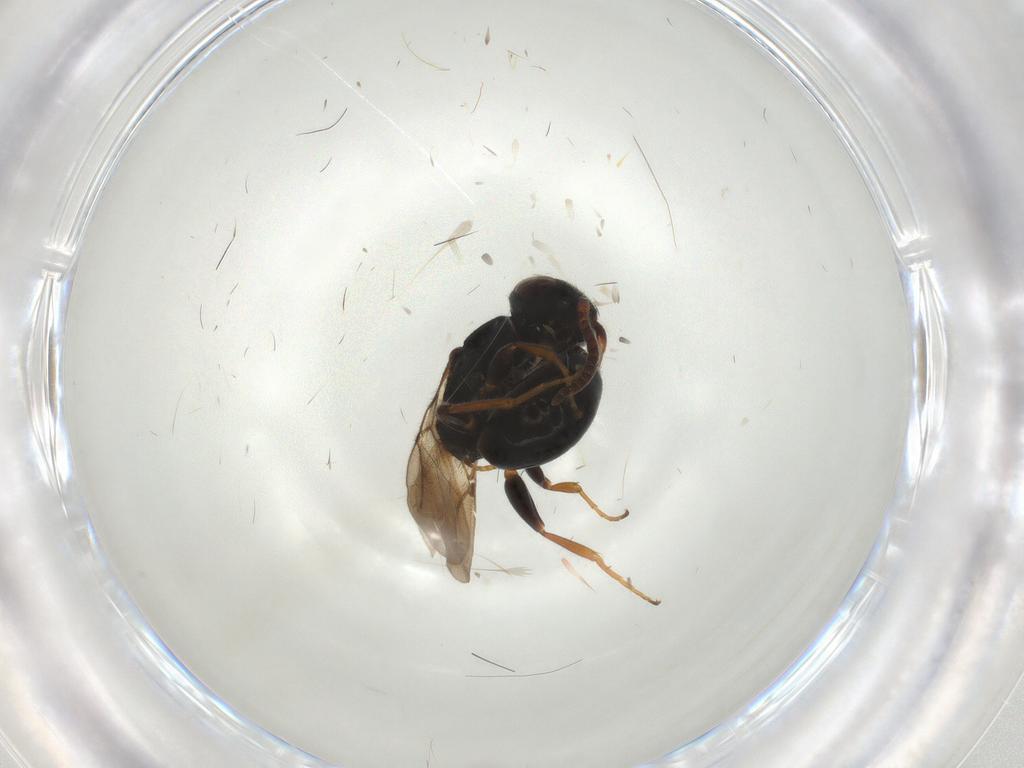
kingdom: Animalia
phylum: Arthropoda
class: Insecta
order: Hymenoptera
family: Bethylidae
